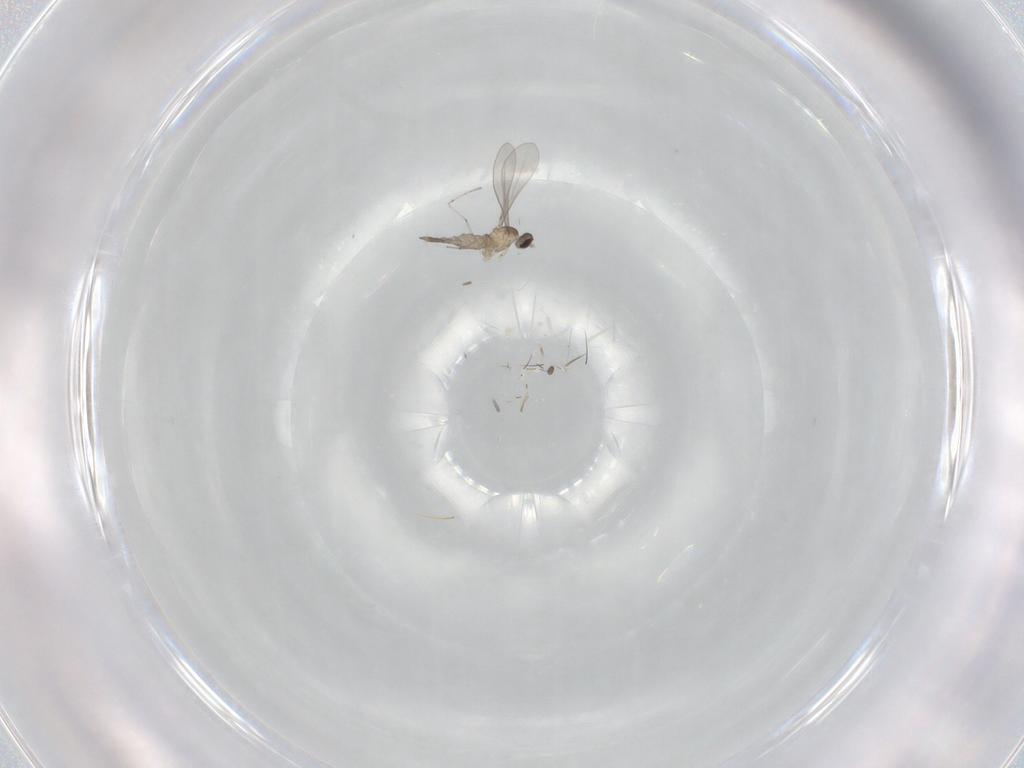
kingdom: Animalia
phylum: Arthropoda
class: Insecta
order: Diptera
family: Cecidomyiidae
